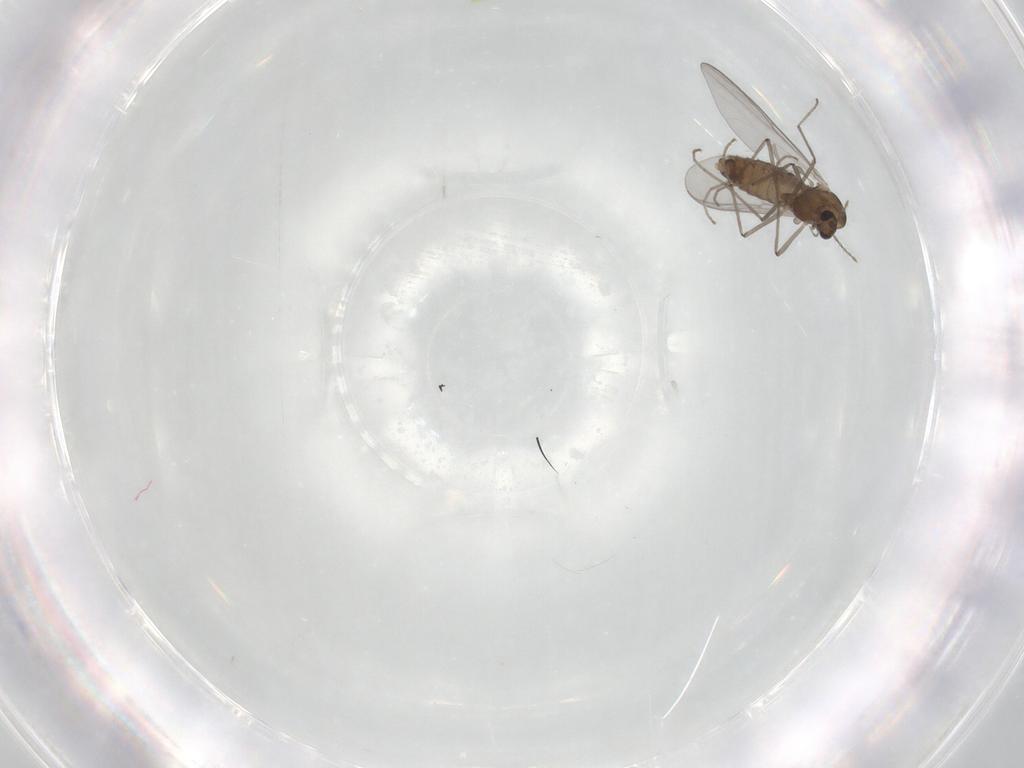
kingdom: Animalia
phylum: Arthropoda
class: Insecta
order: Diptera
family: Chironomidae
